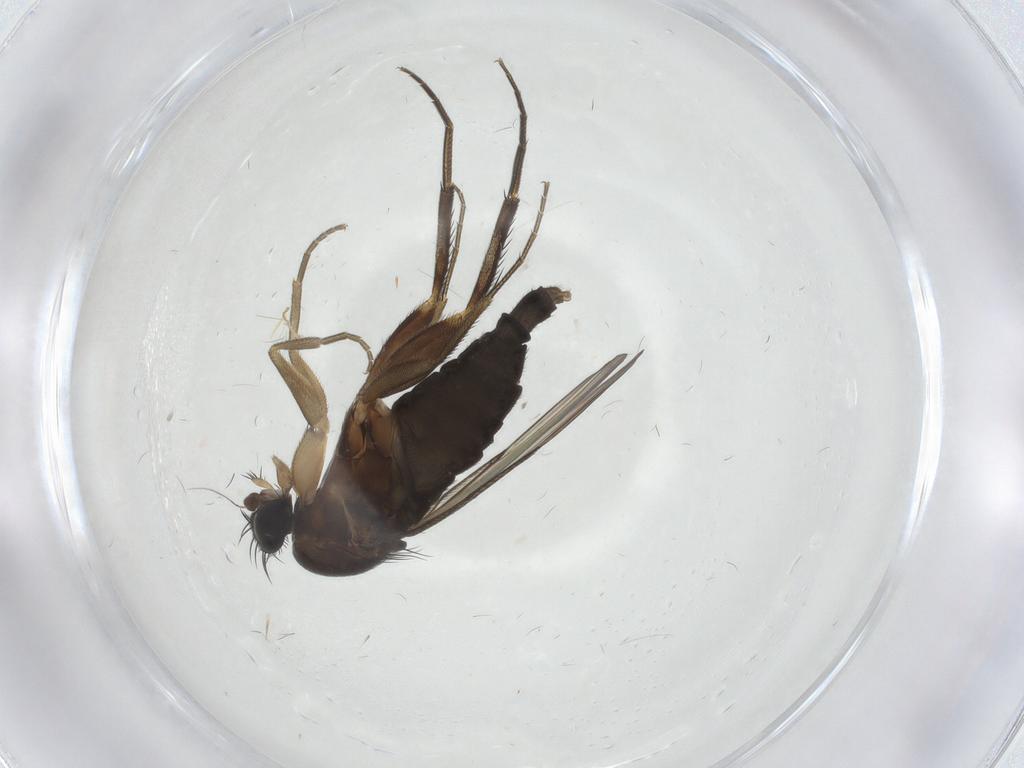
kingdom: Animalia
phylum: Arthropoda
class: Insecta
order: Diptera
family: Phoridae
